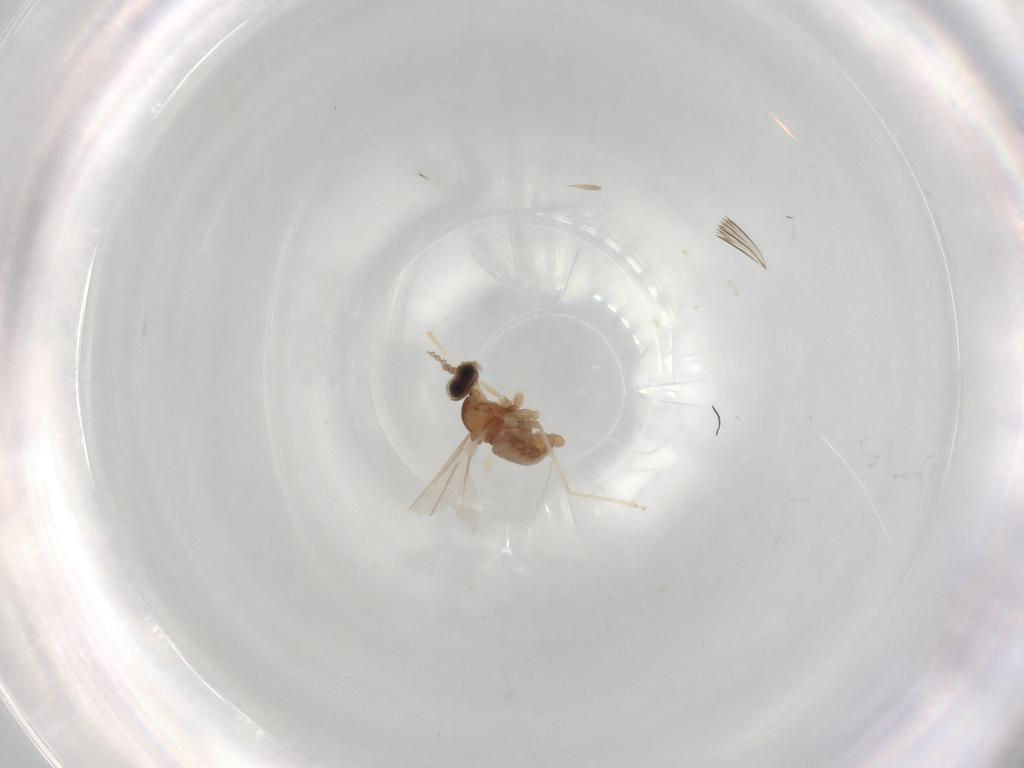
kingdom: Animalia
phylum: Arthropoda
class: Insecta
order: Diptera
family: Cecidomyiidae
